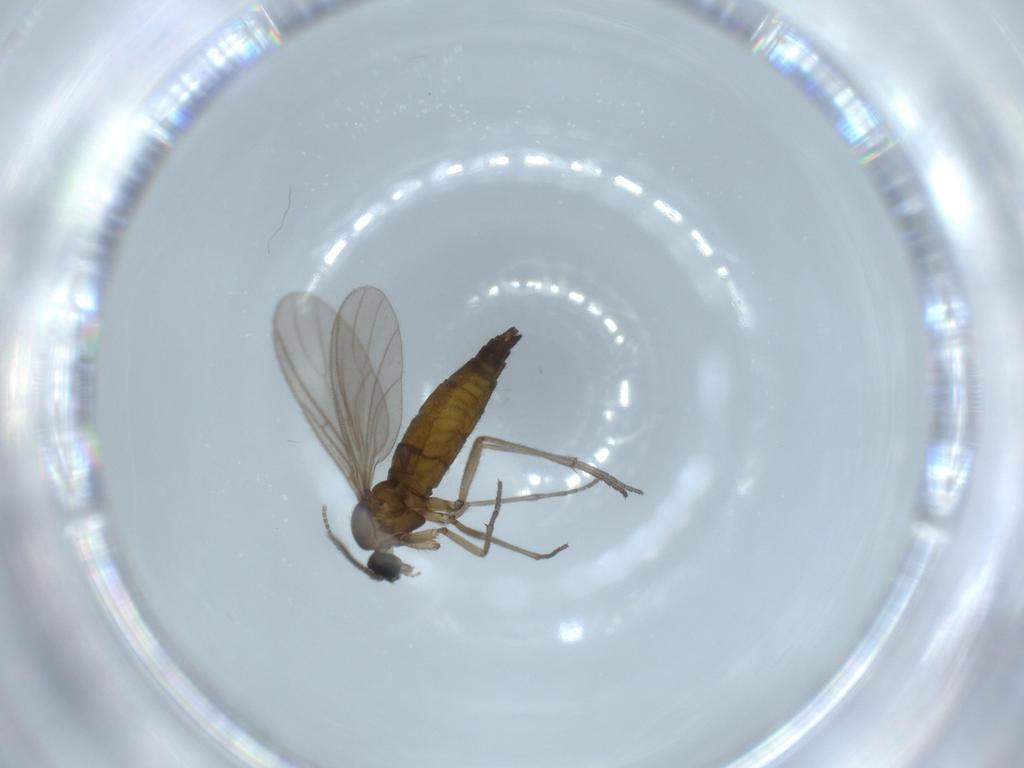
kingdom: Animalia
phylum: Arthropoda
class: Insecta
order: Diptera
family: Sciaridae
